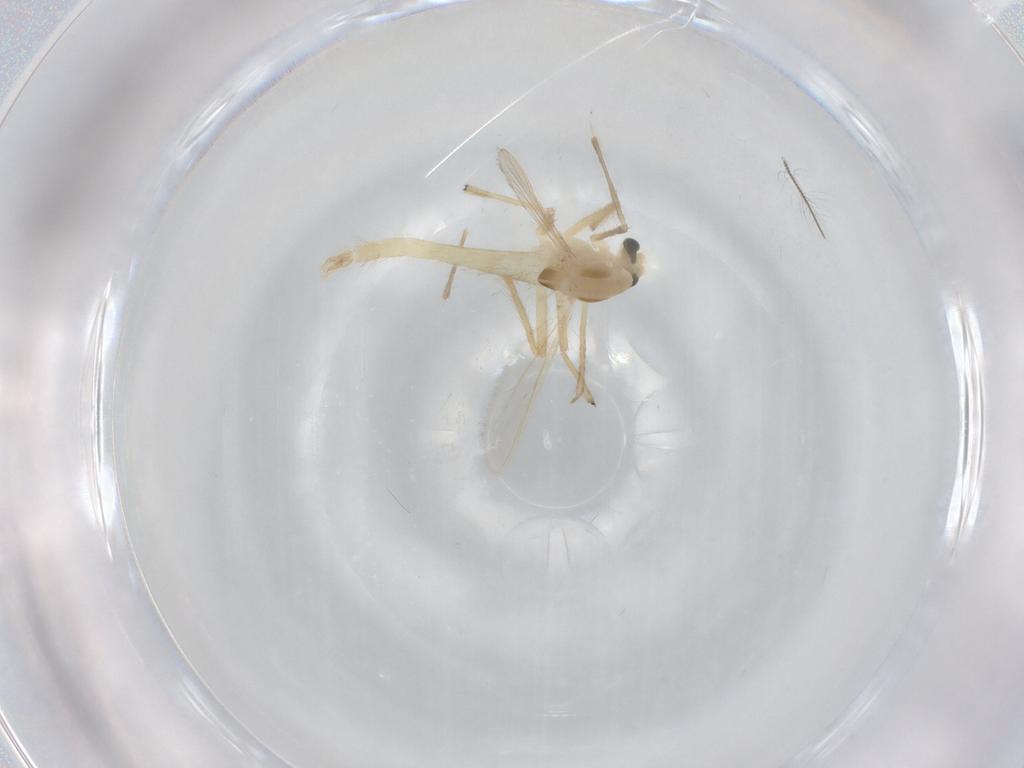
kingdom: Animalia
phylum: Arthropoda
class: Insecta
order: Diptera
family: Chironomidae
